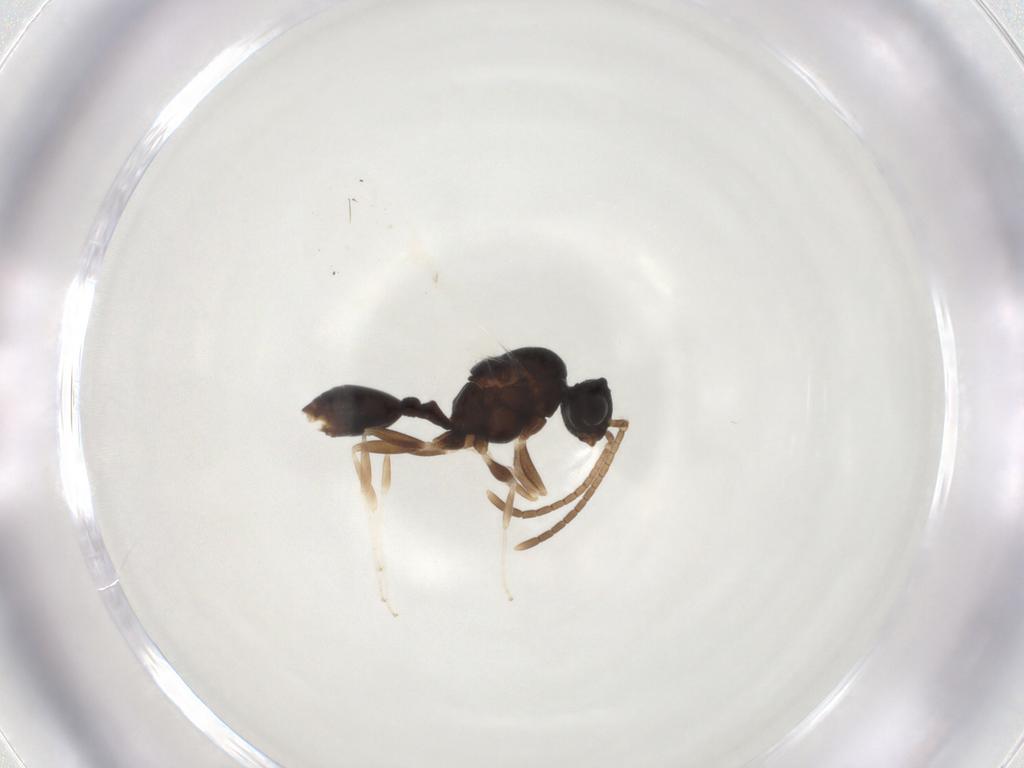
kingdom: Animalia
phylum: Arthropoda
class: Insecta
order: Hymenoptera
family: Formicidae
